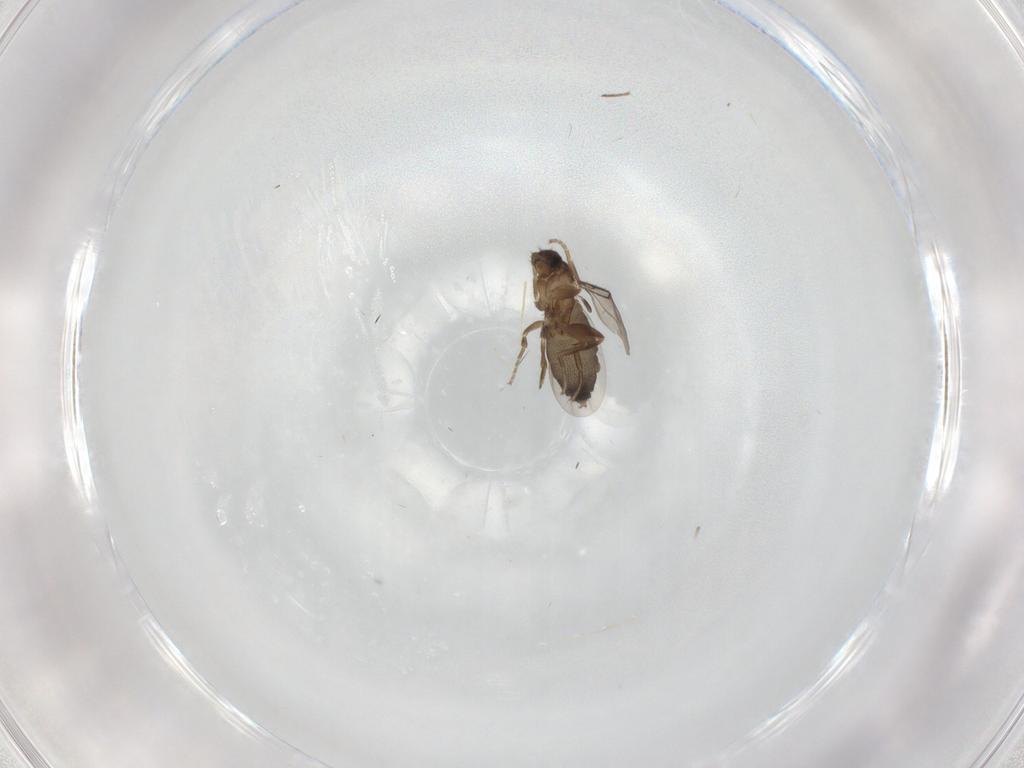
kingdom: Animalia
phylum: Arthropoda
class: Insecta
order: Diptera
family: Phoridae
